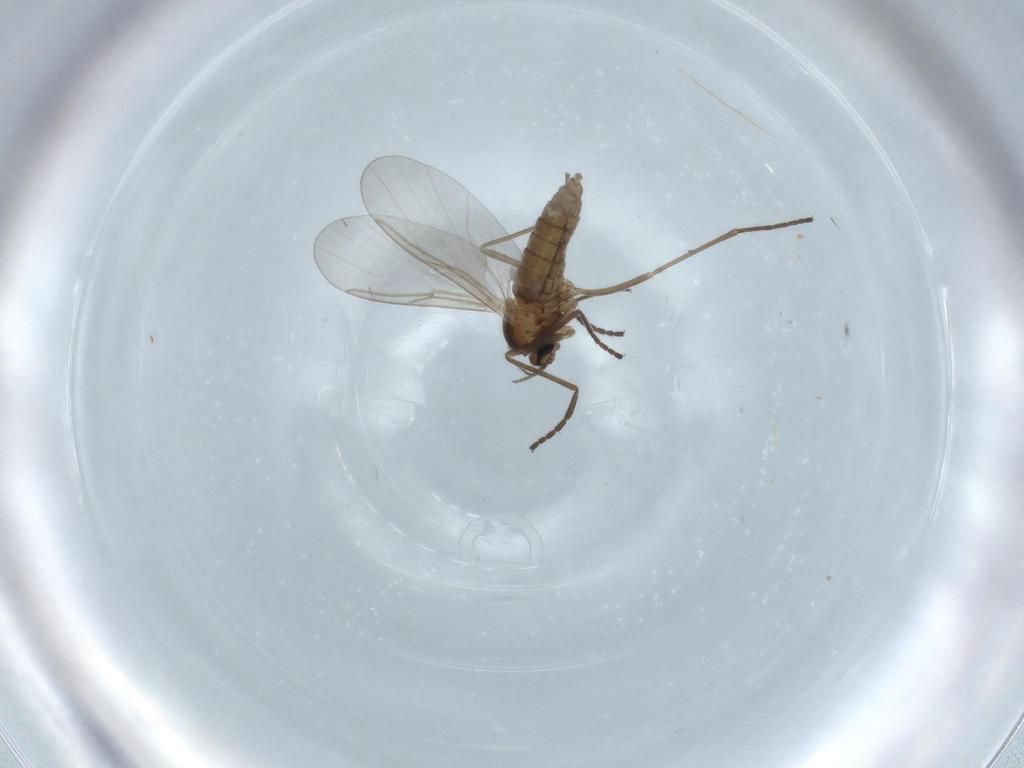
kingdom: Animalia
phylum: Arthropoda
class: Insecta
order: Diptera
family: Cecidomyiidae
